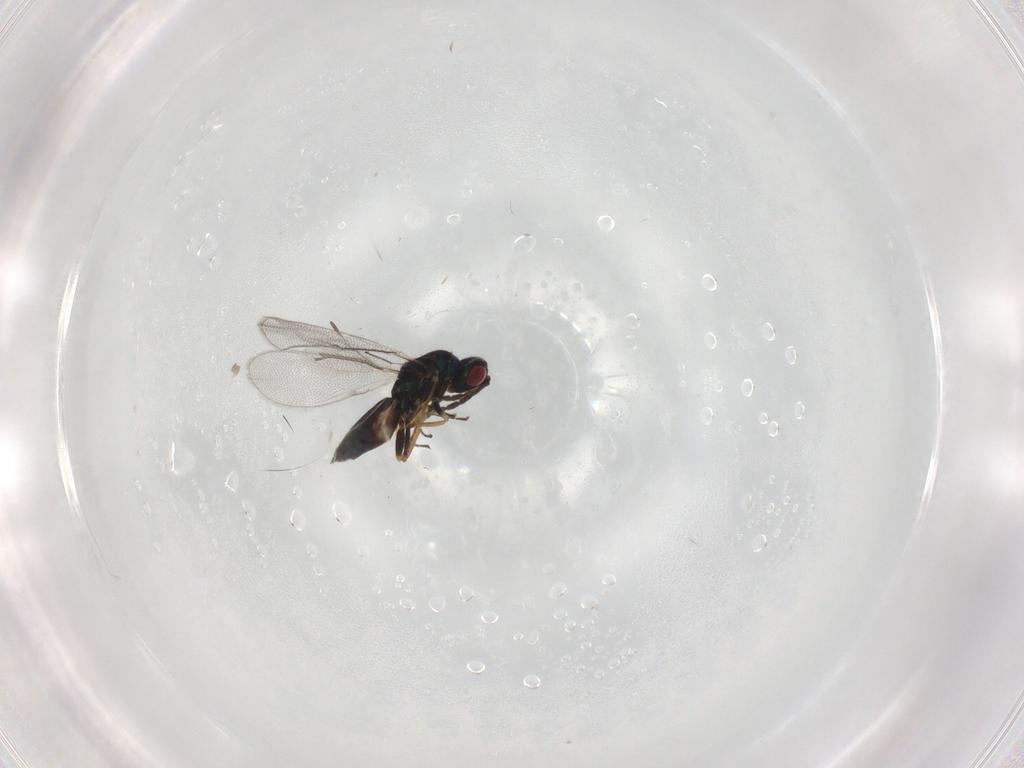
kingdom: Animalia
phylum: Arthropoda
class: Insecta
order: Hymenoptera
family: Eulophidae
